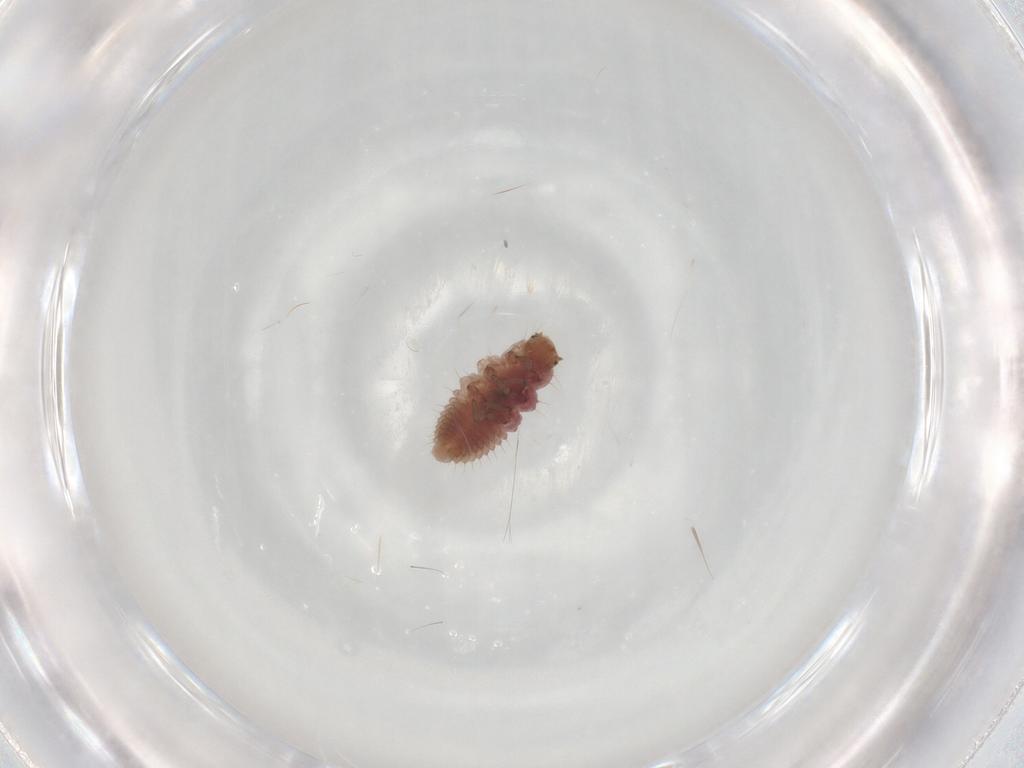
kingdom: Animalia
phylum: Arthropoda
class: Insecta
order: Coleoptera
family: Coccinellidae
